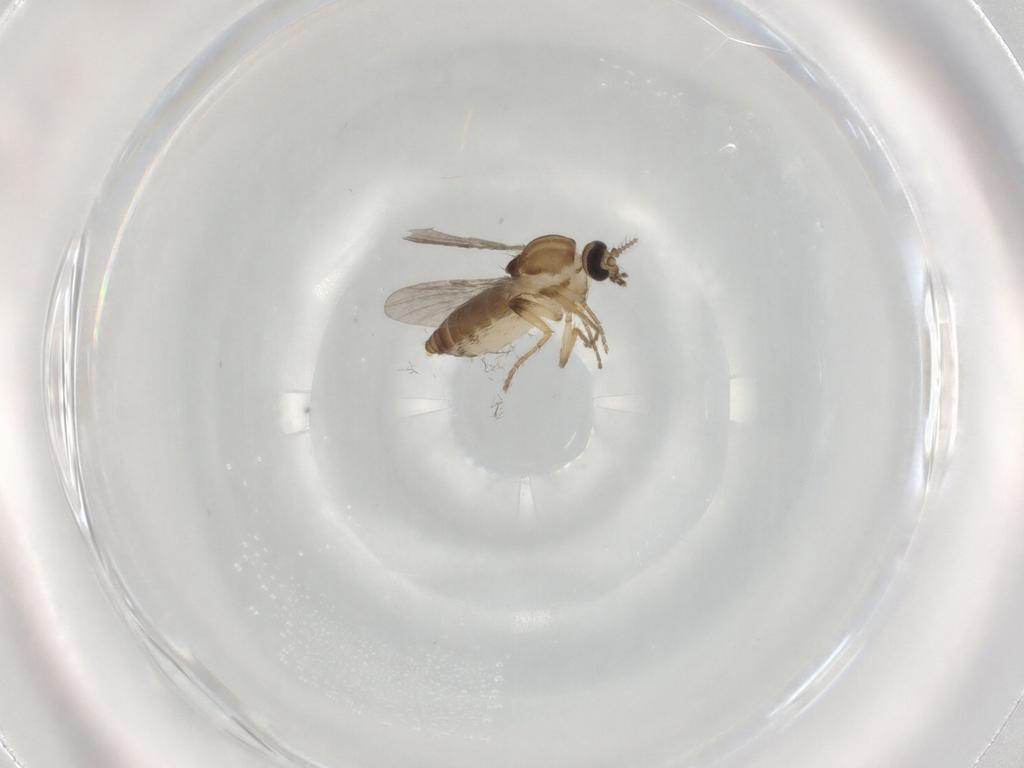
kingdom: Animalia
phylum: Arthropoda
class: Insecta
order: Diptera
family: Ceratopogonidae
